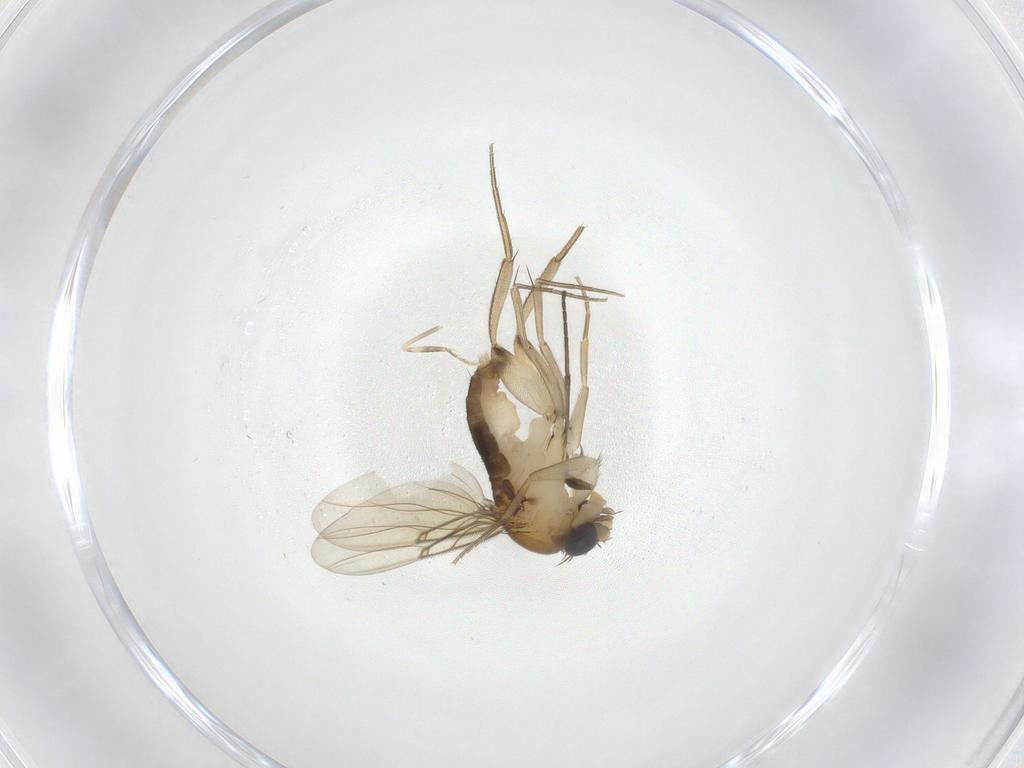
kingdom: Animalia
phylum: Arthropoda
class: Insecta
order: Diptera
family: Phoridae
